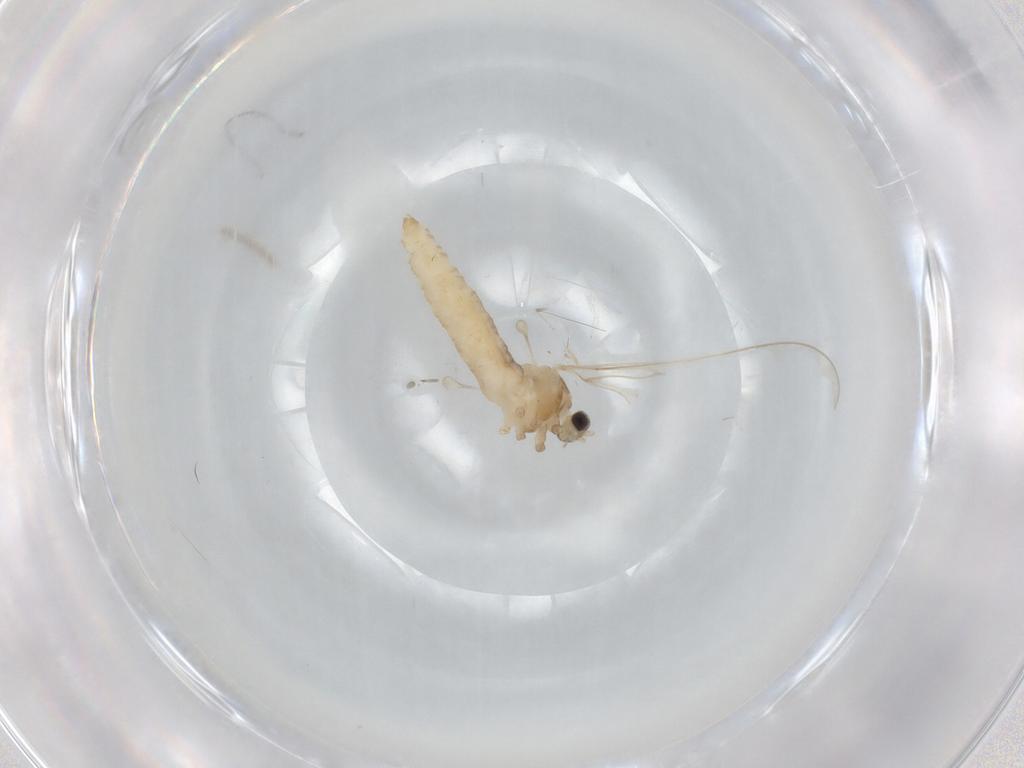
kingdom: Animalia
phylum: Arthropoda
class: Insecta
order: Diptera
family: Cecidomyiidae
